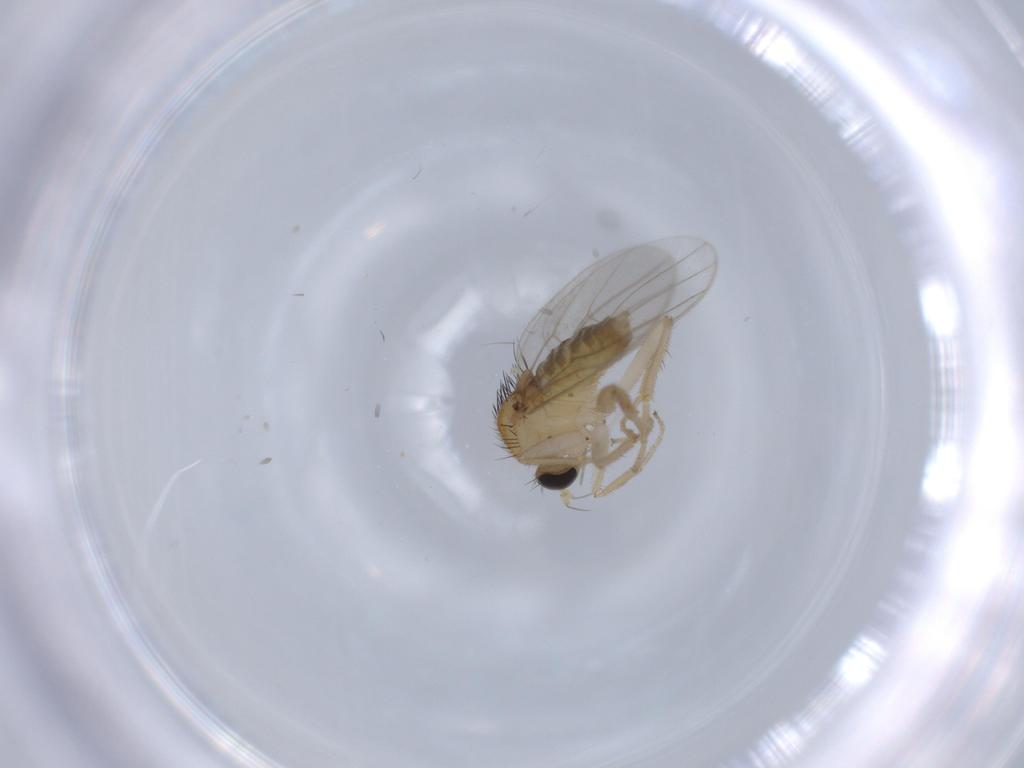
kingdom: Animalia
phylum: Arthropoda
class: Insecta
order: Diptera
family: Hybotidae
